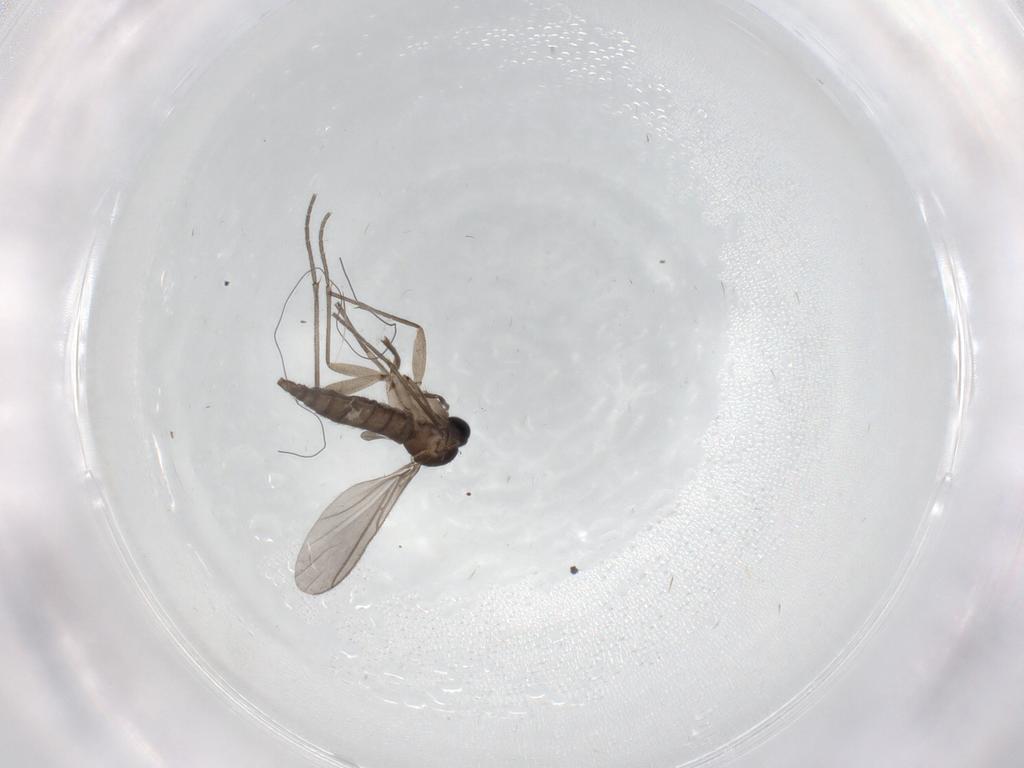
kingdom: Animalia
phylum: Arthropoda
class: Insecta
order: Diptera
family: Sciaridae
